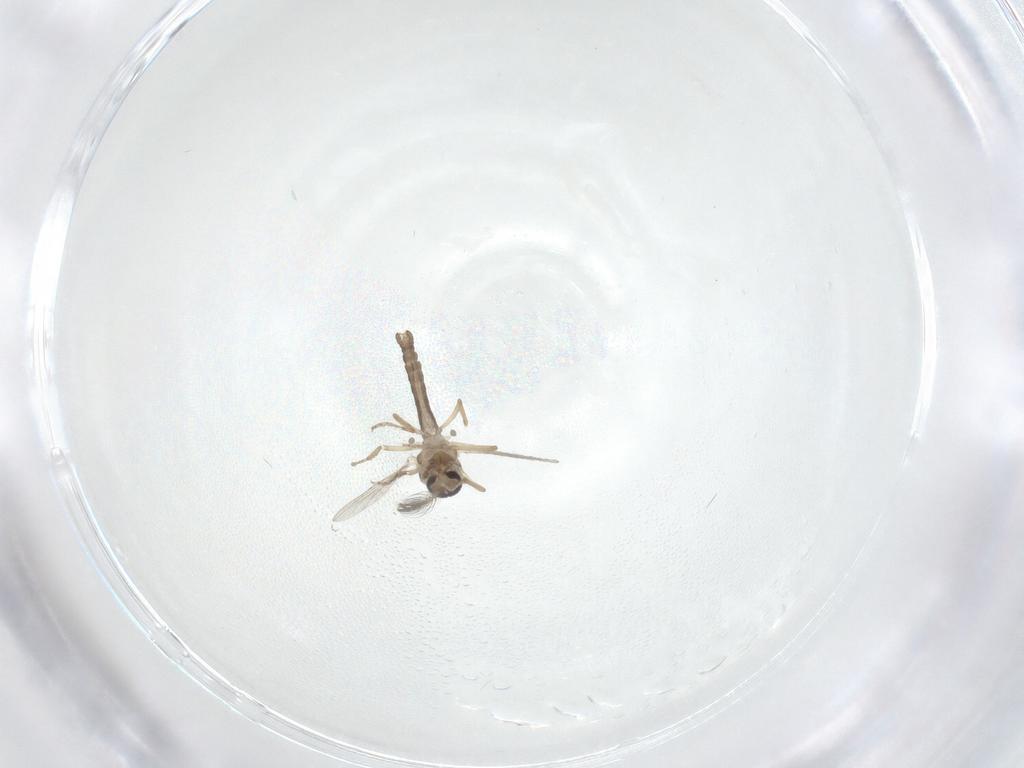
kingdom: Animalia
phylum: Arthropoda
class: Insecta
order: Diptera
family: Ceratopogonidae
